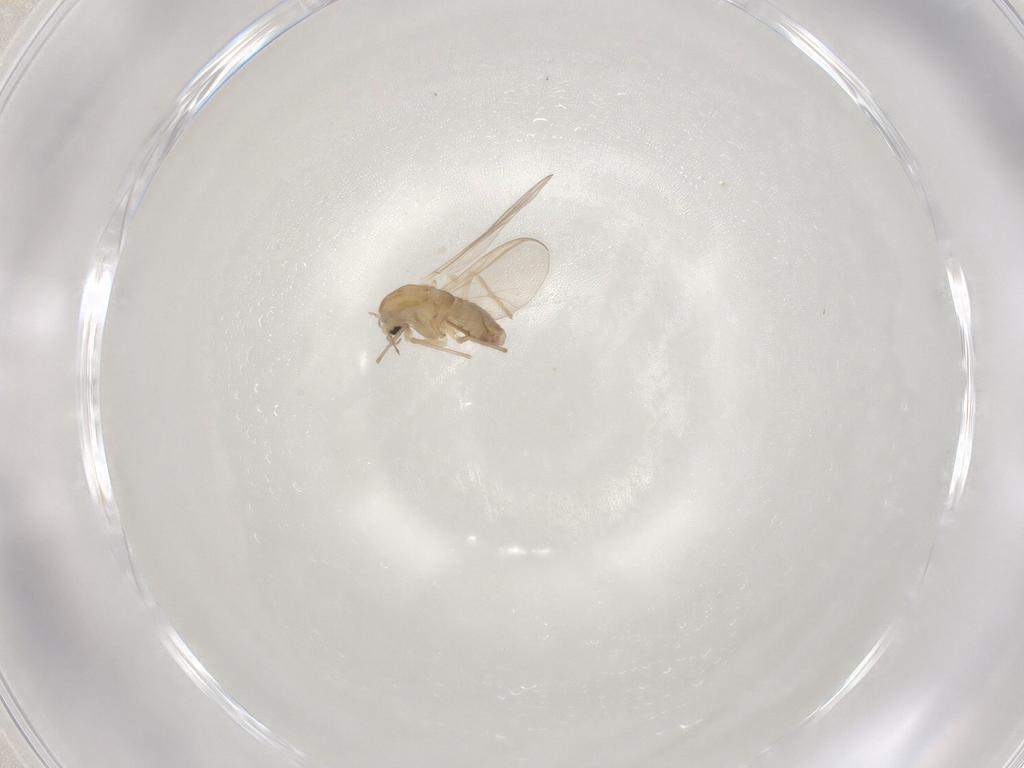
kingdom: Animalia
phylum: Arthropoda
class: Insecta
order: Diptera
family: Chironomidae
